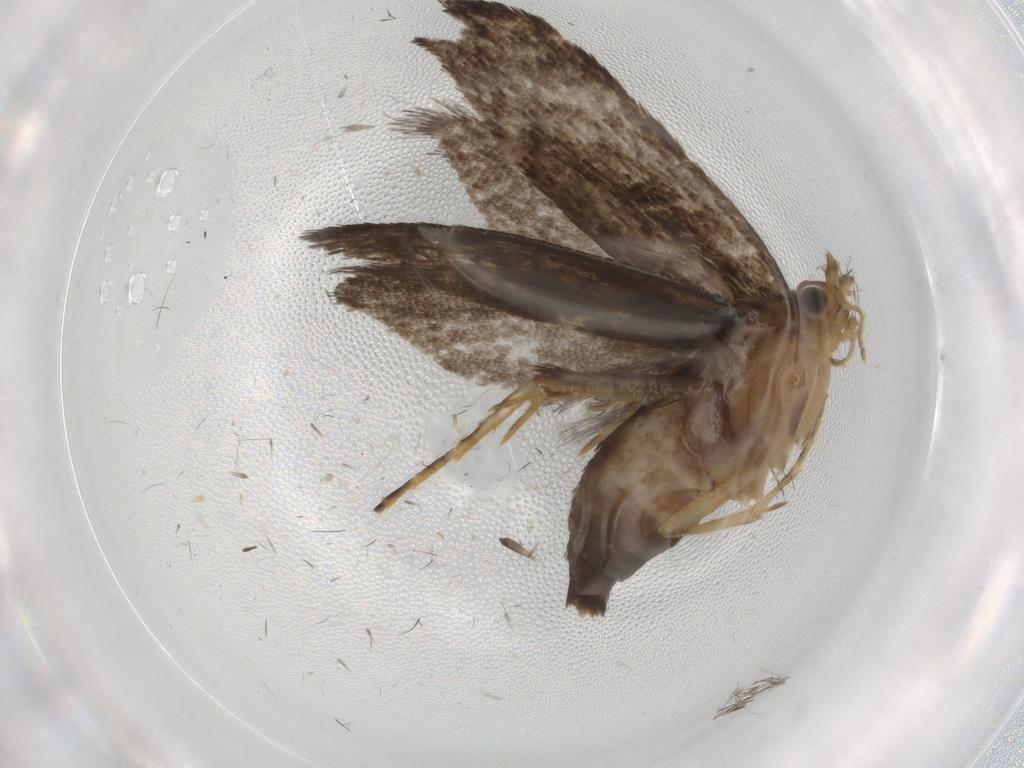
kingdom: Animalia
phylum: Arthropoda
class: Insecta
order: Lepidoptera
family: Tineidae
